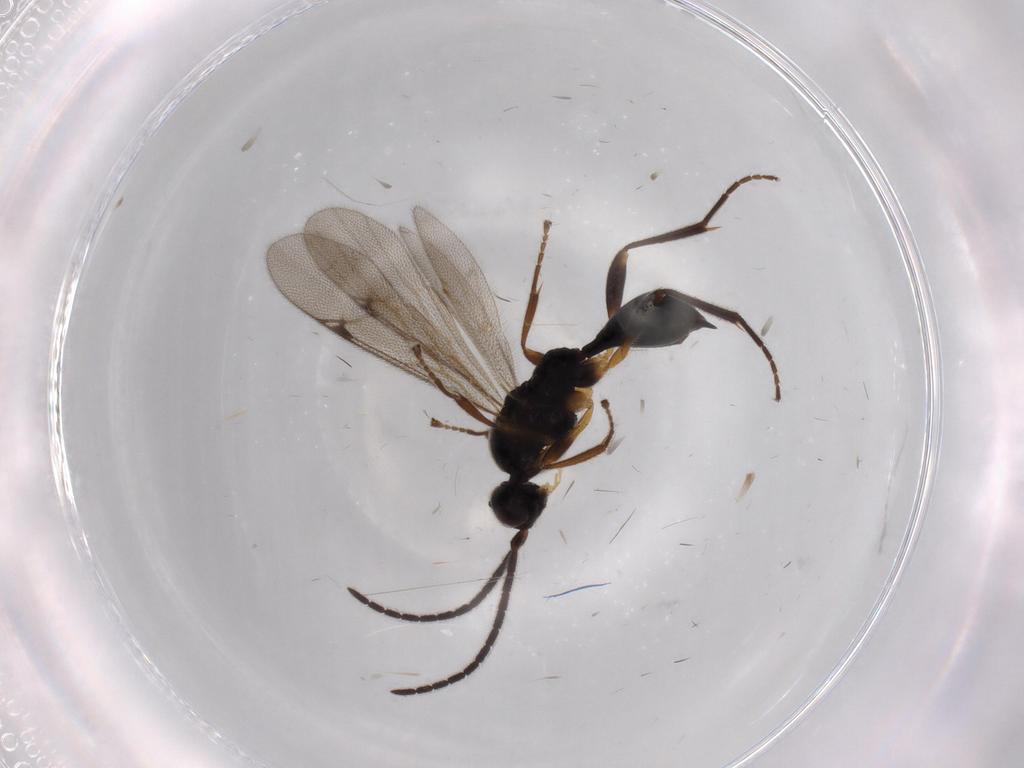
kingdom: Animalia
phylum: Arthropoda
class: Insecta
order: Hymenoptera
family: Proctotrupidae
